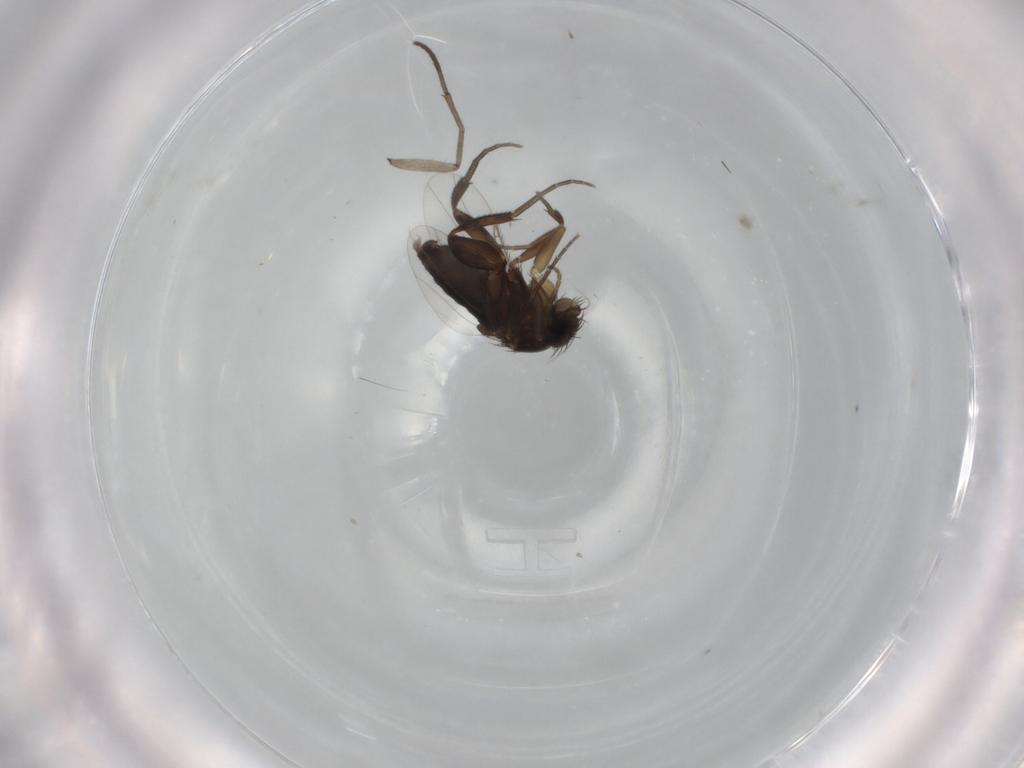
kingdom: Animalia
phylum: Arthropoda
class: Insecta
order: Diptera
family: Phoridae
